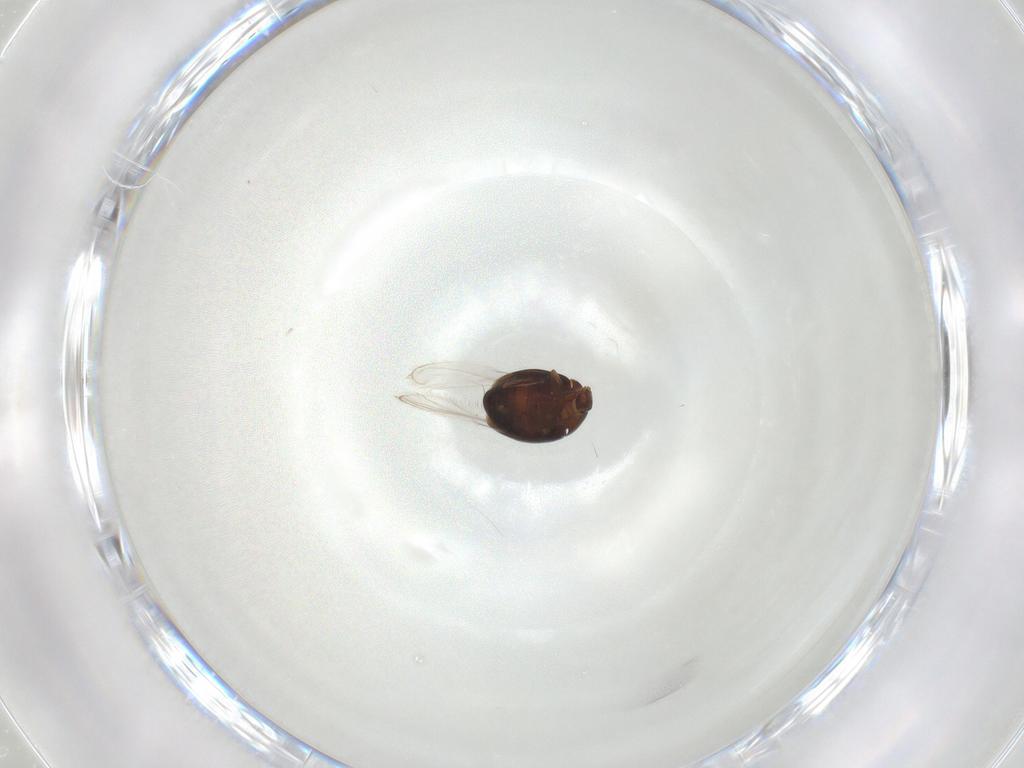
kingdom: Animalia
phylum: Arthropoda
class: Insecta
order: Coleoptera
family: Corylophidae
